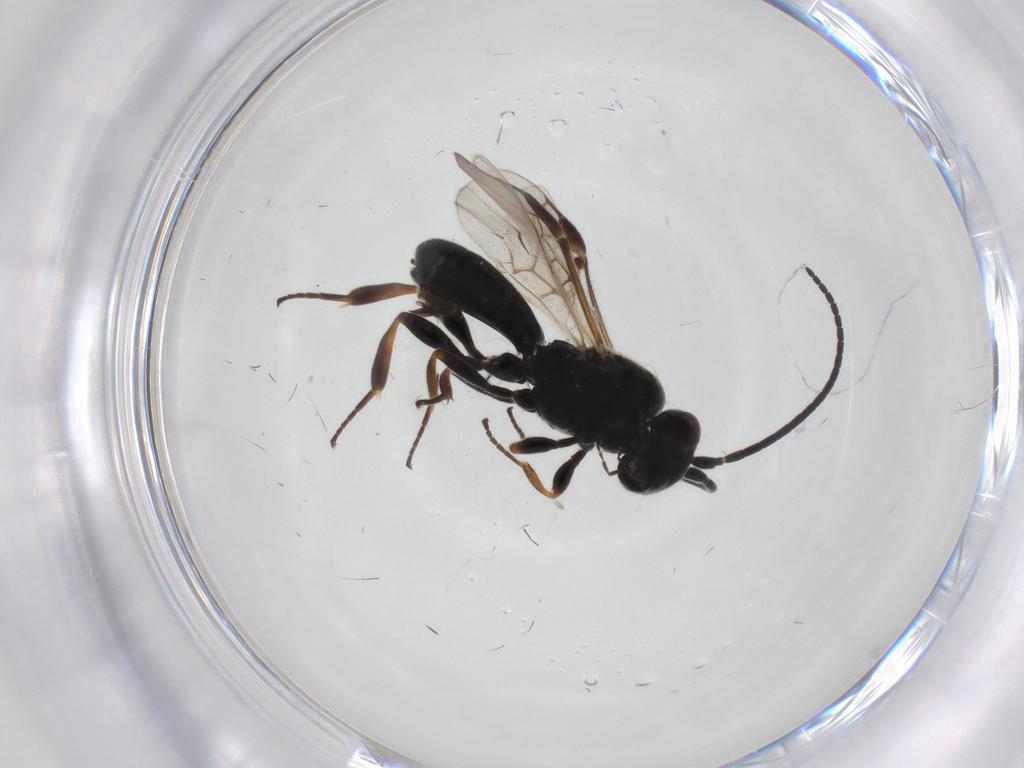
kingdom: Animalia
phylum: Arthropoda
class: Insecta
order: Hymenoptera
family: Braconidae
